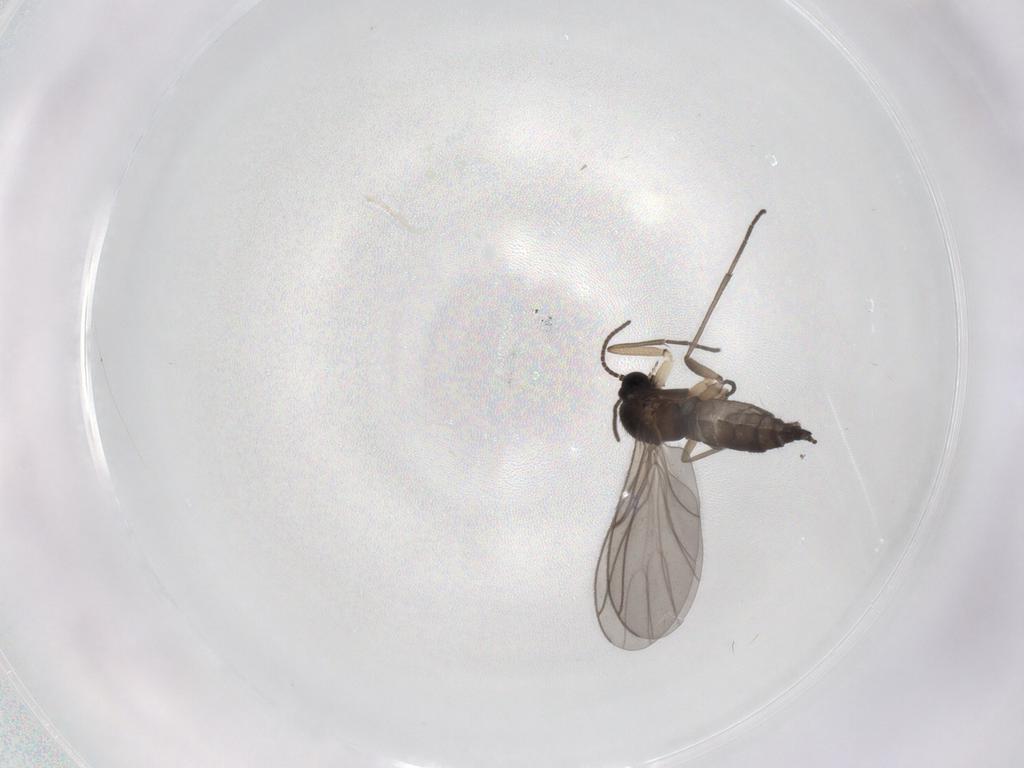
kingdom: Animalia
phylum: Arthropoda
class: Insecta
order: Diptera
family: Sciaridae
